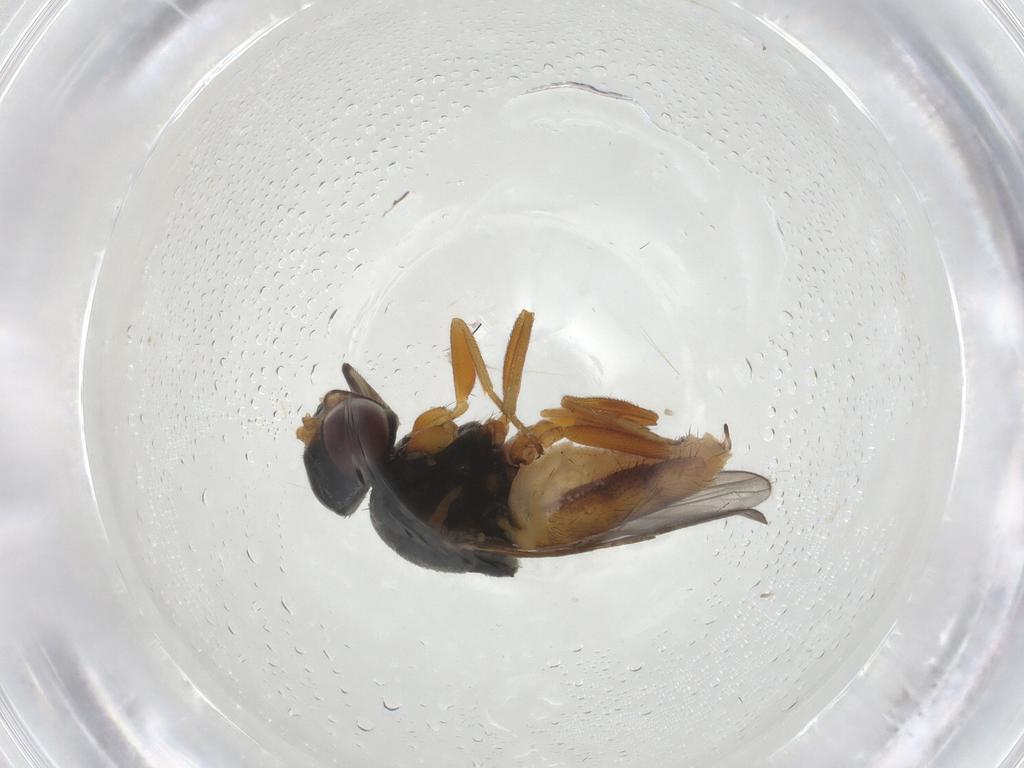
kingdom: Animalia
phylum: Arthropoda
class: Insecta
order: Diptera
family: Chloropidae
